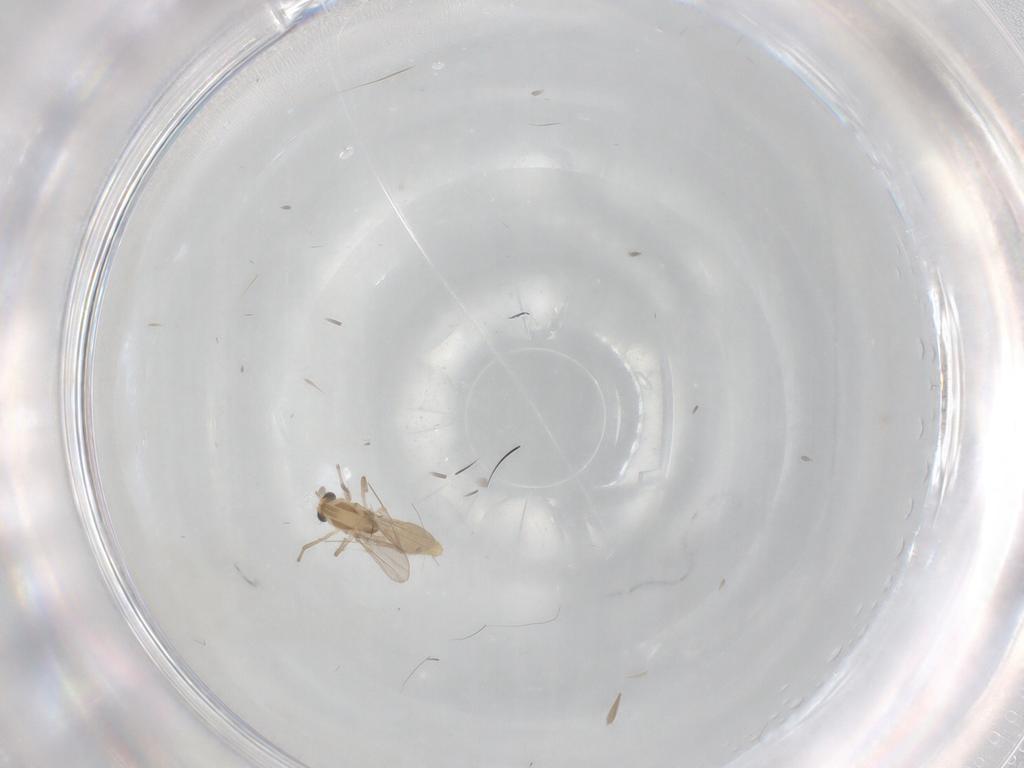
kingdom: Animalia
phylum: Arthropoda
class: Insecta
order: Diptera
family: Chironomidae
